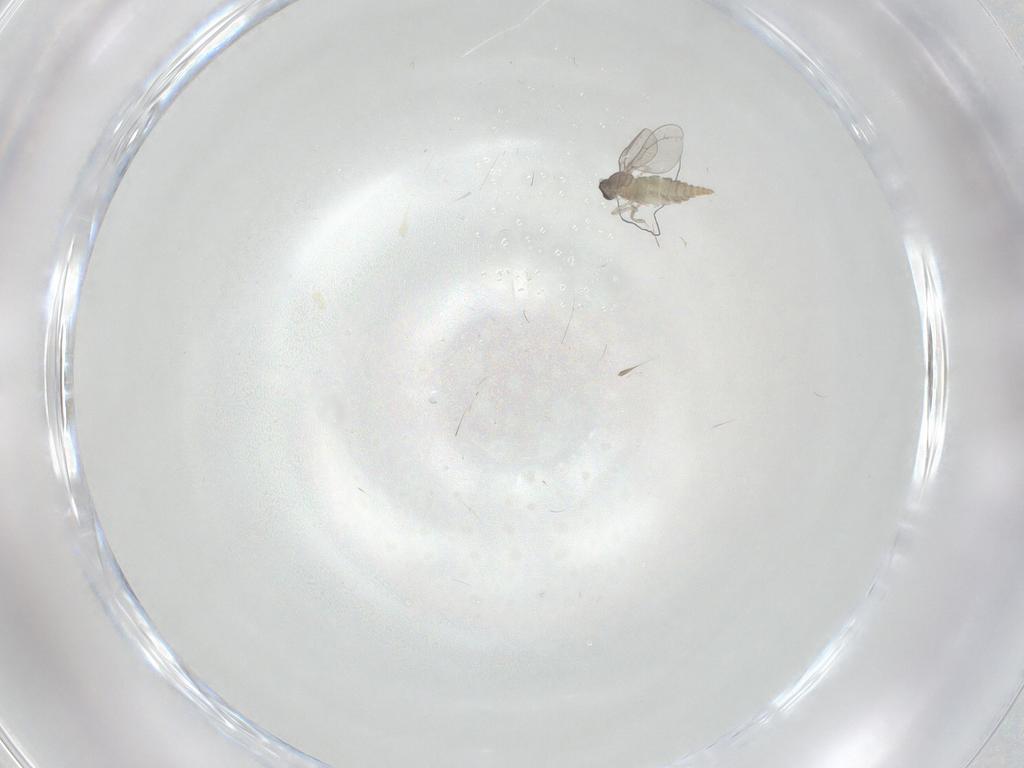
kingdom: Animalia
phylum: Arthropoda
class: Insecta
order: Diptera
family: Cecidomyiidae
